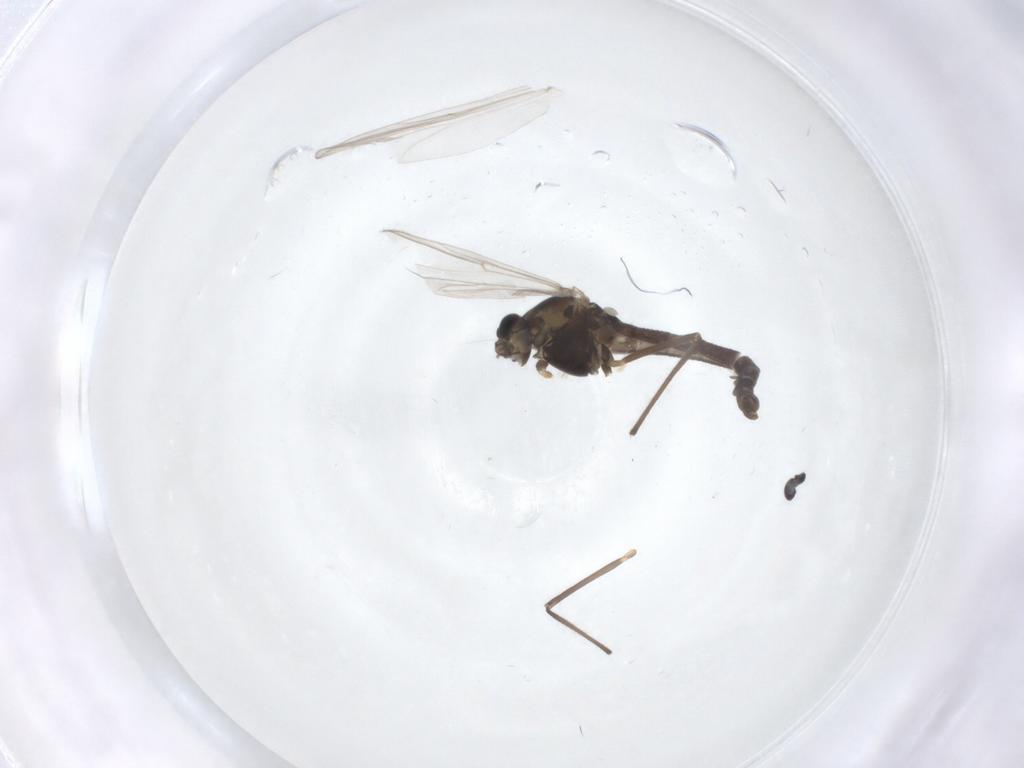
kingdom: Animalia
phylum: Arthropoda
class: Insecta
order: Diptera
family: Chironomidae
